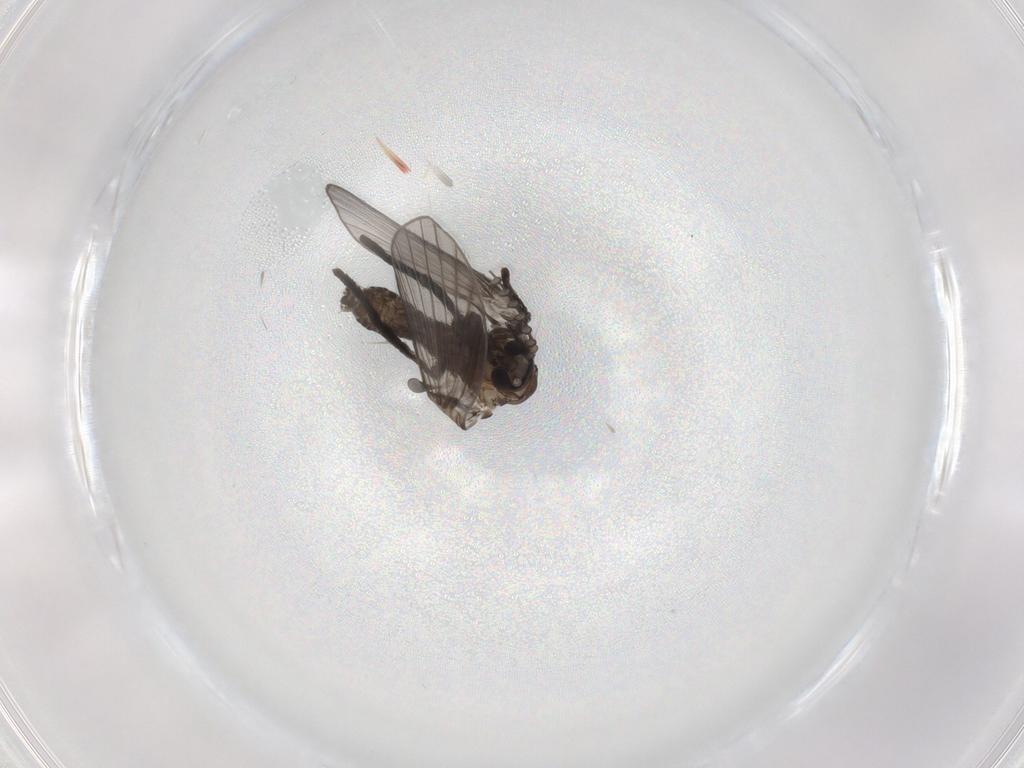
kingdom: Animalia
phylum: Arthropoda
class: Insecta
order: Diptera
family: Psychodidae
